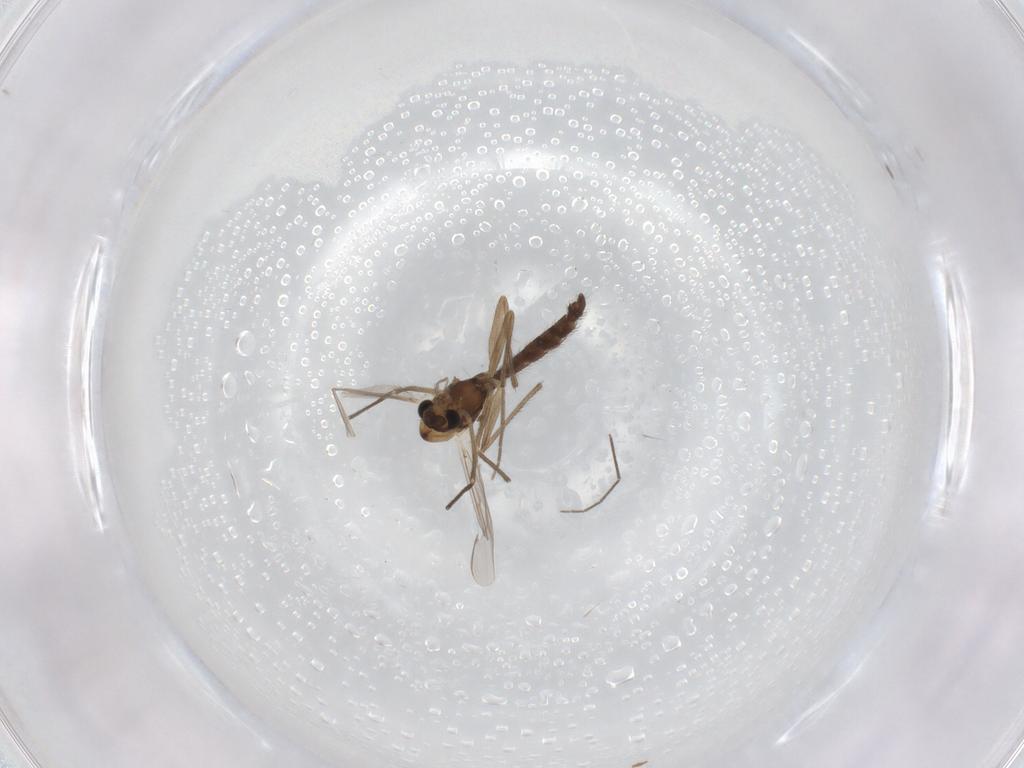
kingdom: Animalia
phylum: Arthropoda
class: Insecta
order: Diptera
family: Chironomidae
